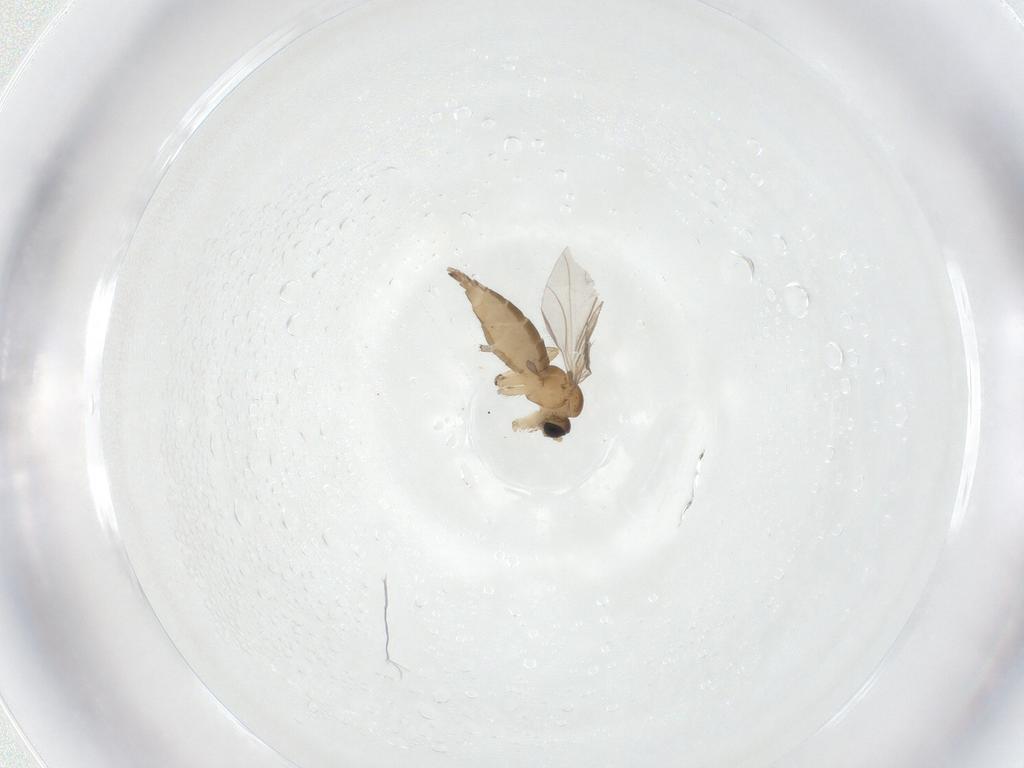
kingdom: Animalia
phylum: Arthropoda
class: Insecta
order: Diptera
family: Sciaridae
